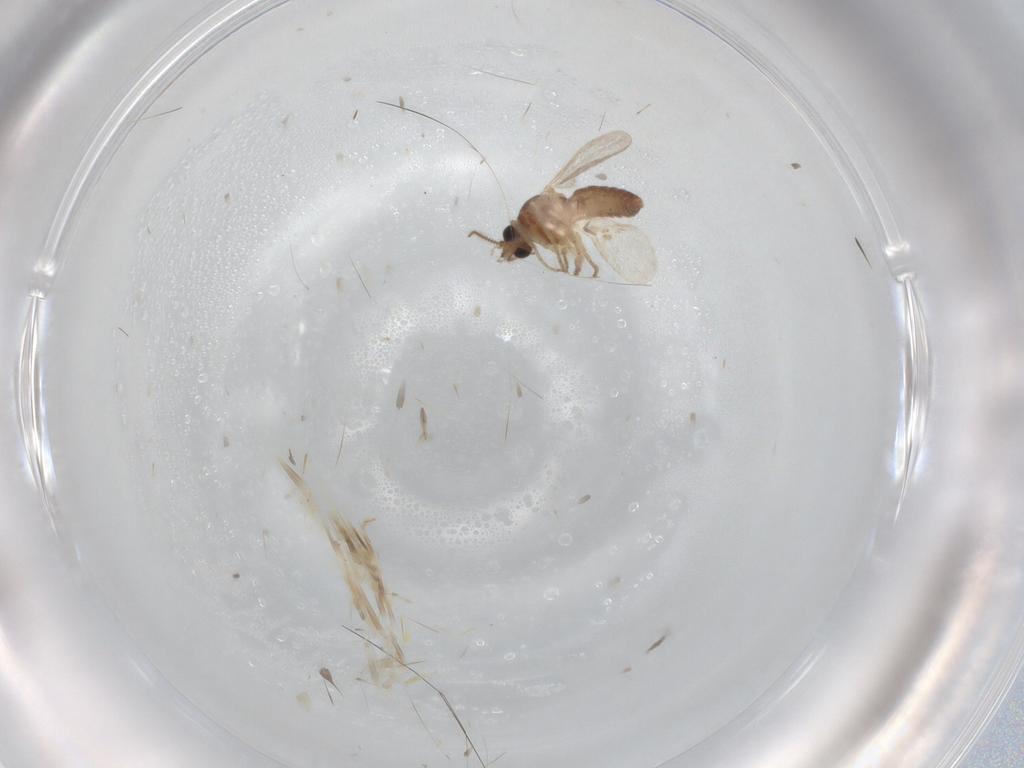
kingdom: Animalia
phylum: Arthropoda
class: Insecta
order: Diptera
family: Ceratopogonidae
